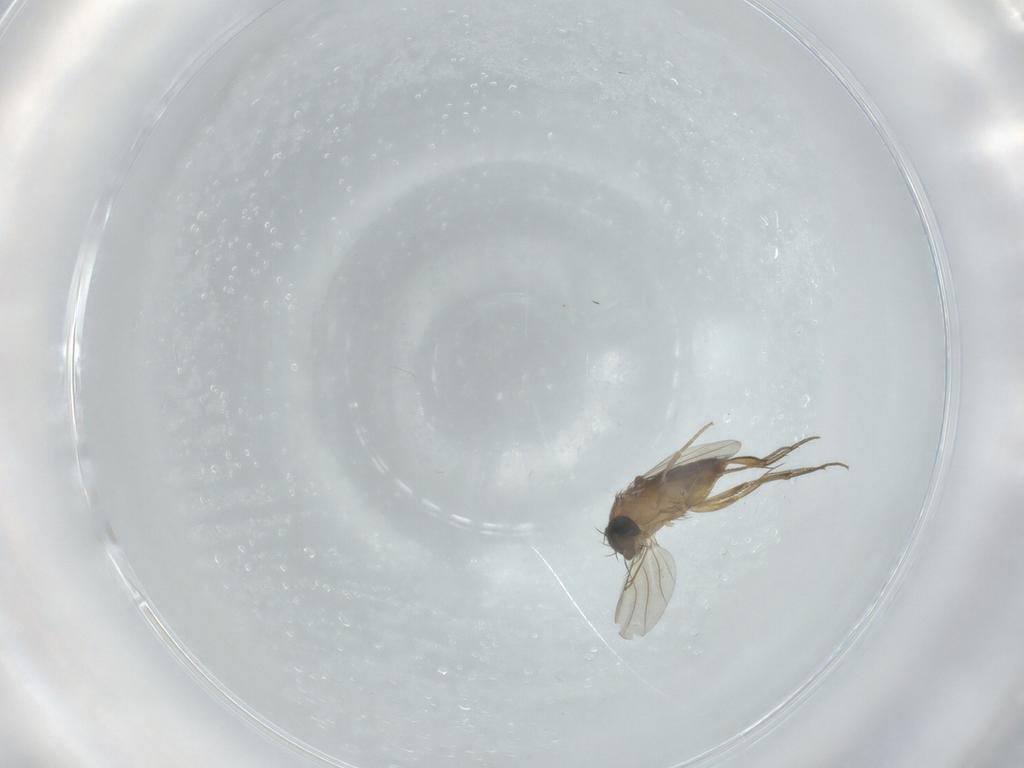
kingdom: Animalia
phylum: Arthropoda
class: Insecta
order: Diptera
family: Phoridae
